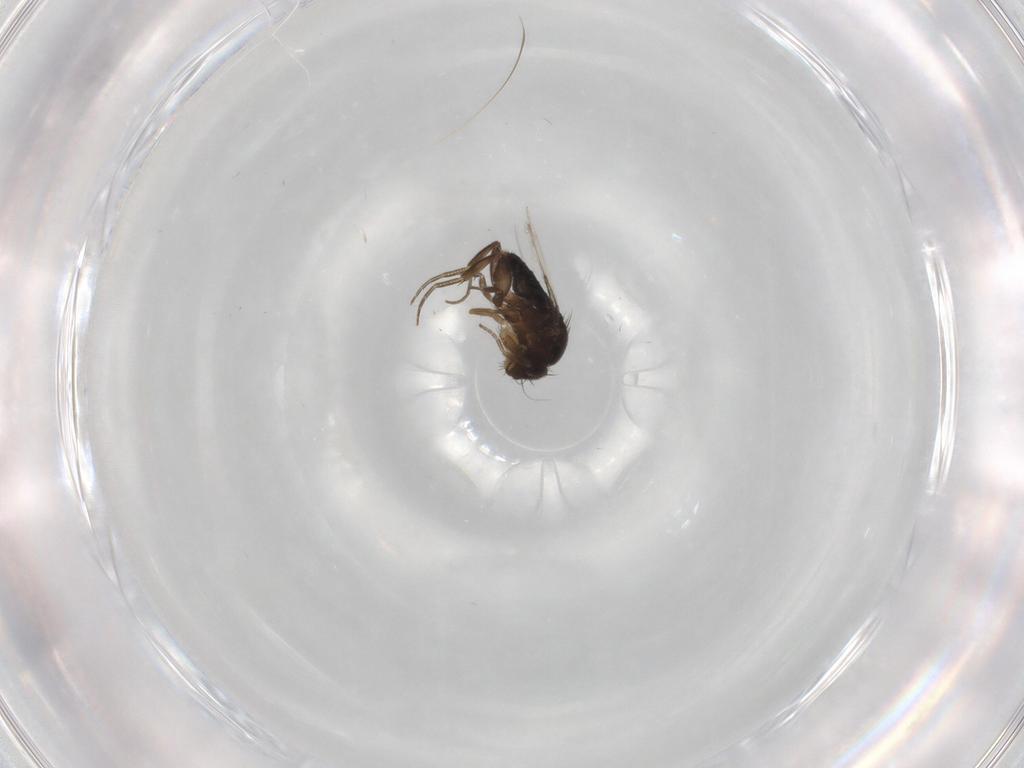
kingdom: Animalia
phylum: Arthropoda
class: Insecta
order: Diptera
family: Phoridae
